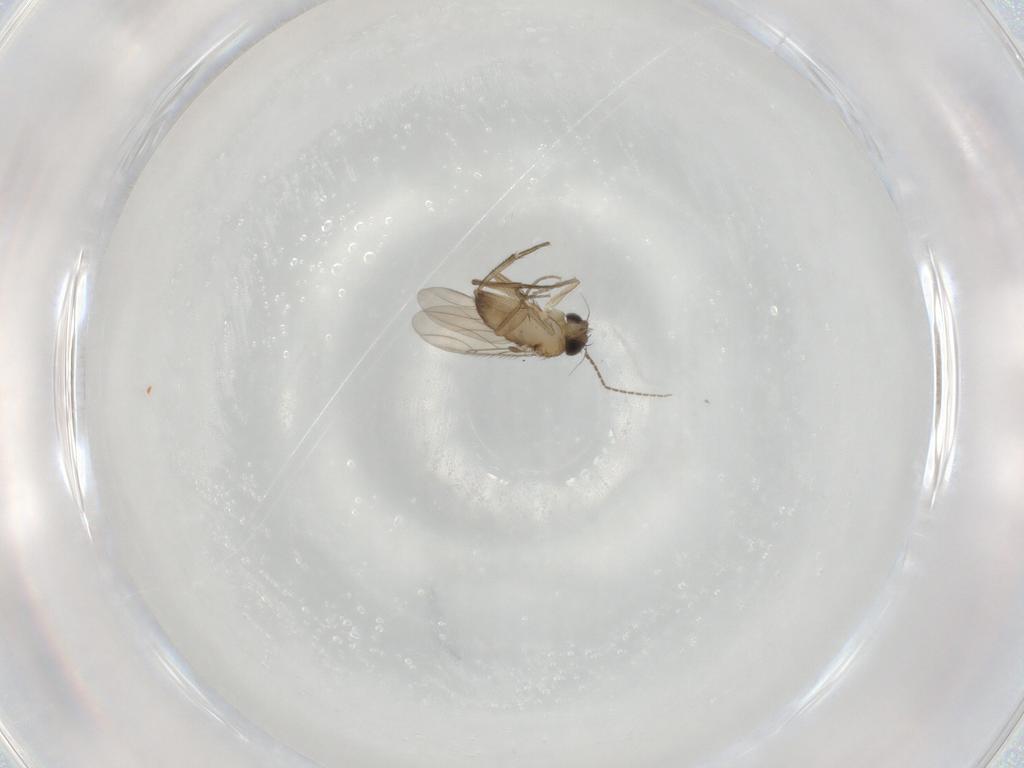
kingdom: Animalia
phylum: Arthropoda
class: Insecta
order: Diptera
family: Phoridae
